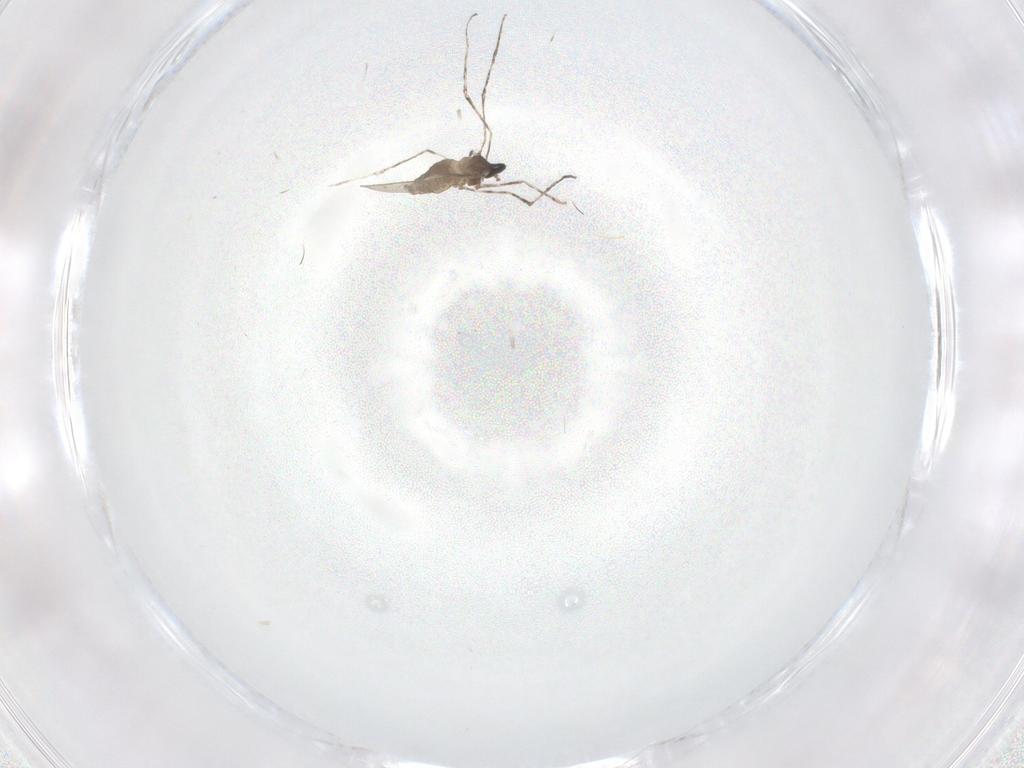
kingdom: Animalia
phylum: Arthropoda
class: Insecta
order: Diptera
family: Cecidomyiidae
